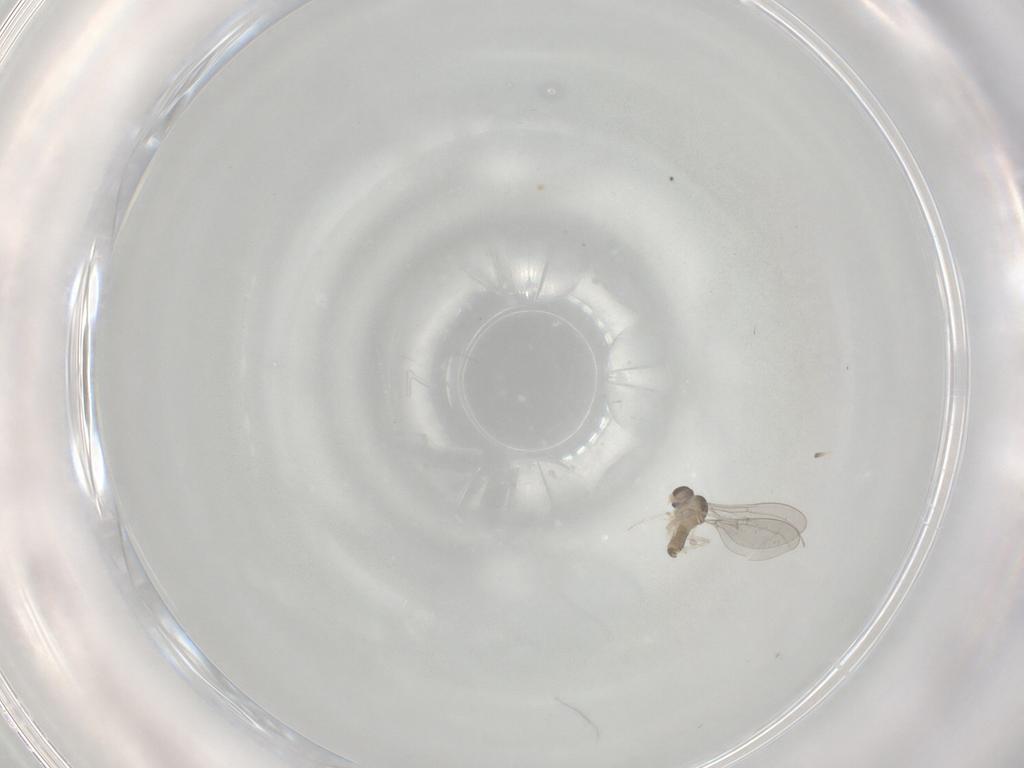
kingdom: Animalia
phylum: Arthropoda
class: Insecta
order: Diptera
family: Cecidomyiidae
